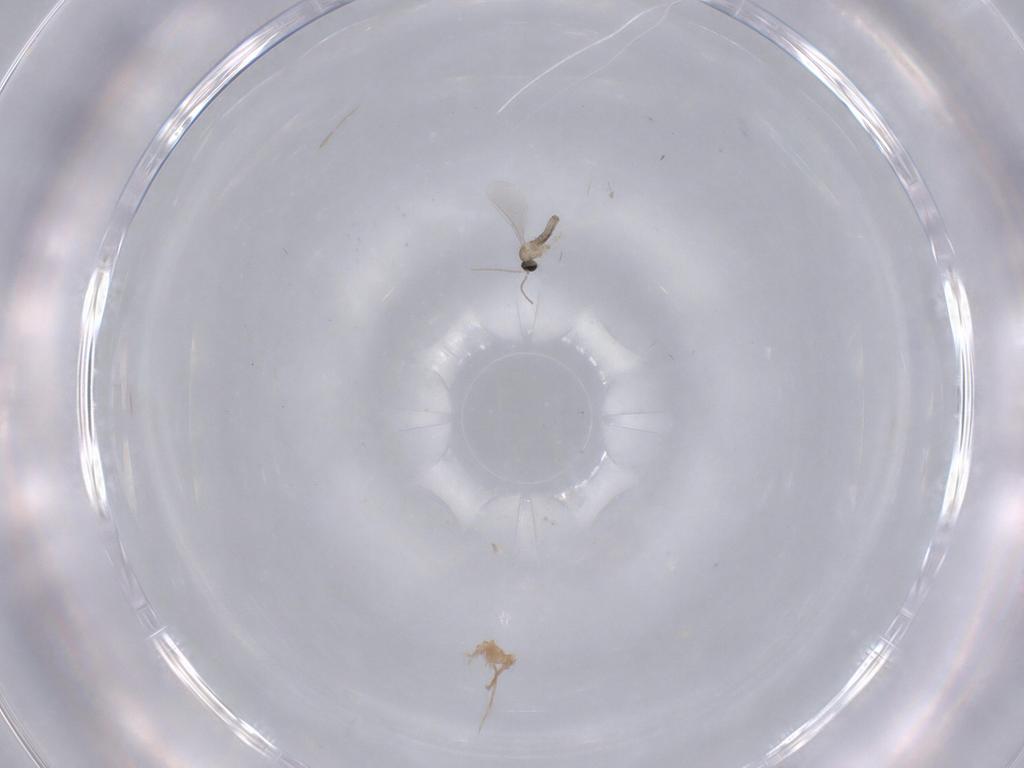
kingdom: Animalia
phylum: Arthropoda
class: Insecta
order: Diptera
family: Cecidomyiidae
